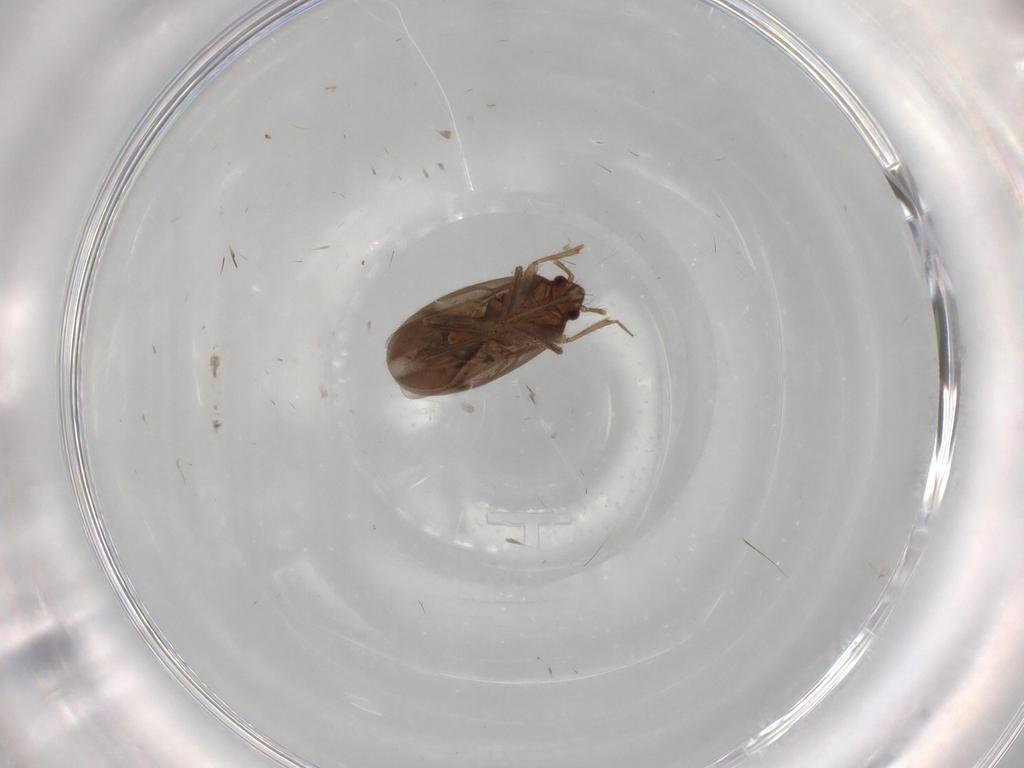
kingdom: Animalia
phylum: Arthropoda
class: Insecta
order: Hemiptera
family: Ceratocombidae
